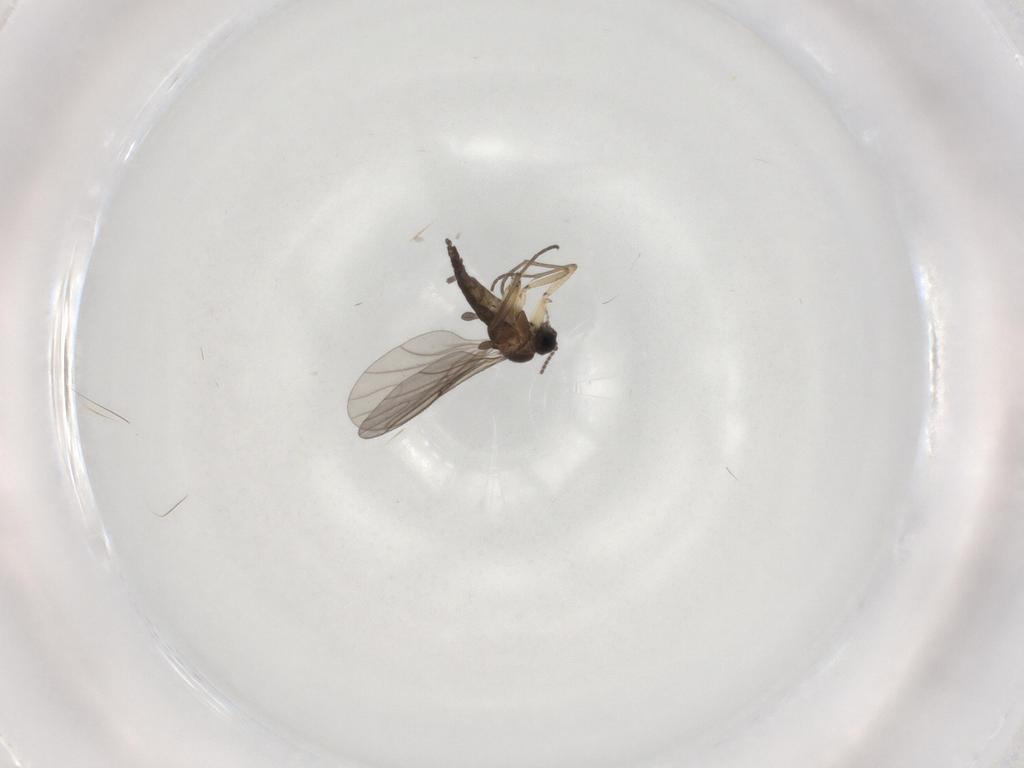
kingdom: Animalia
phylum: Arthropoda
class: Insecta
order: Diptera
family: Sciaridae
